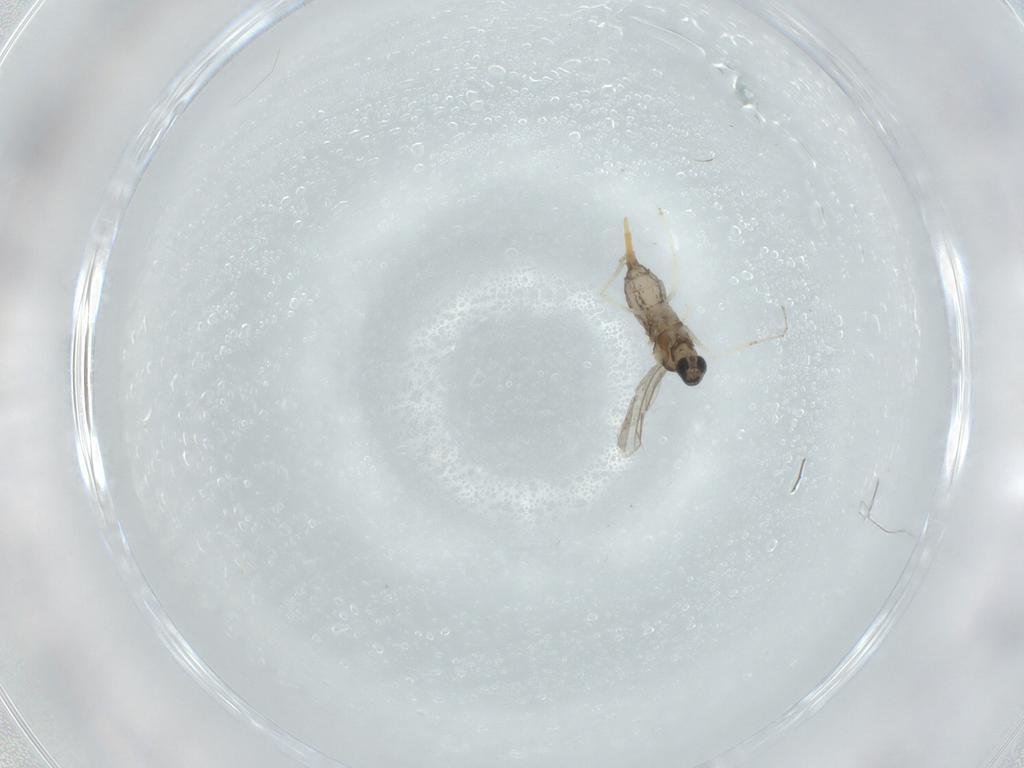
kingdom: Animalia
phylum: Arthropoda
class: Insecta
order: Diptera
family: Cecidomyiidae
